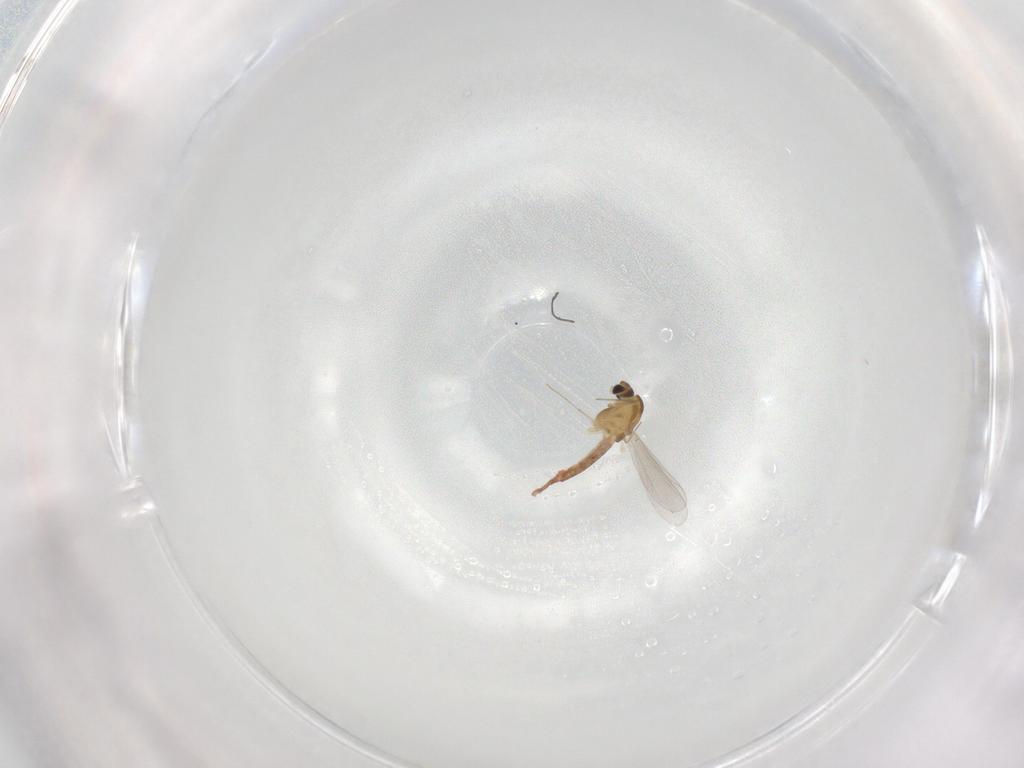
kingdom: Animalia
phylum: Arthropoda
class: Insecta
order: Diptera
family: Chironomidae
